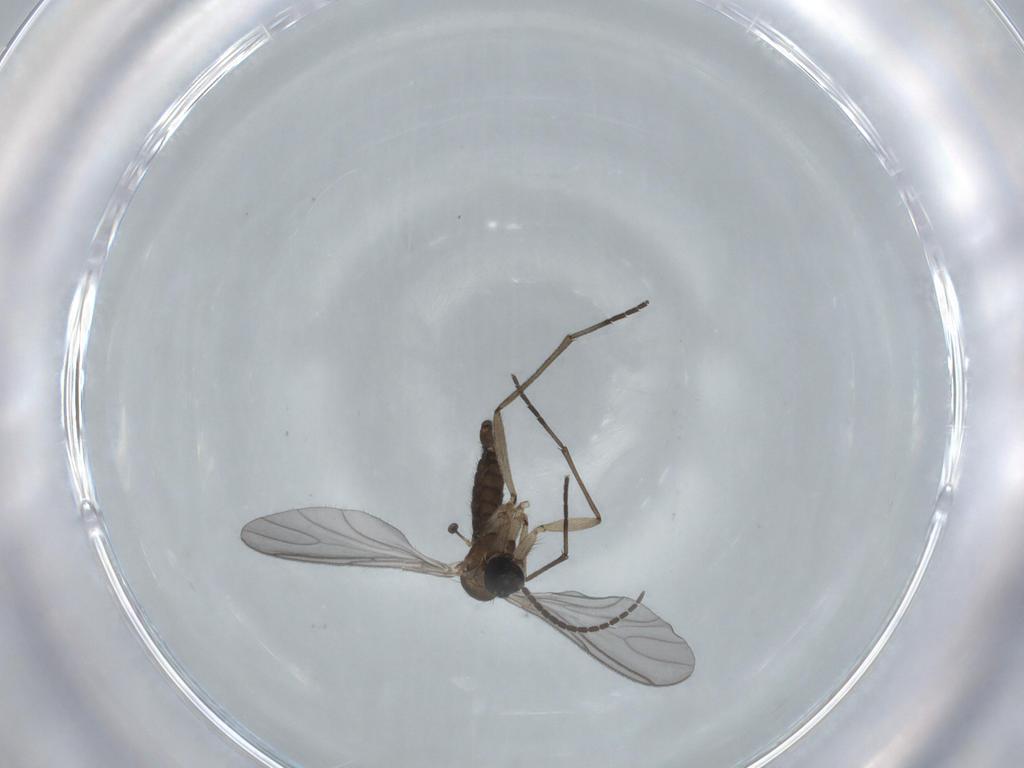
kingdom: Animalia
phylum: Arthropoda
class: Insecta
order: Diptera
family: Sciaridae
